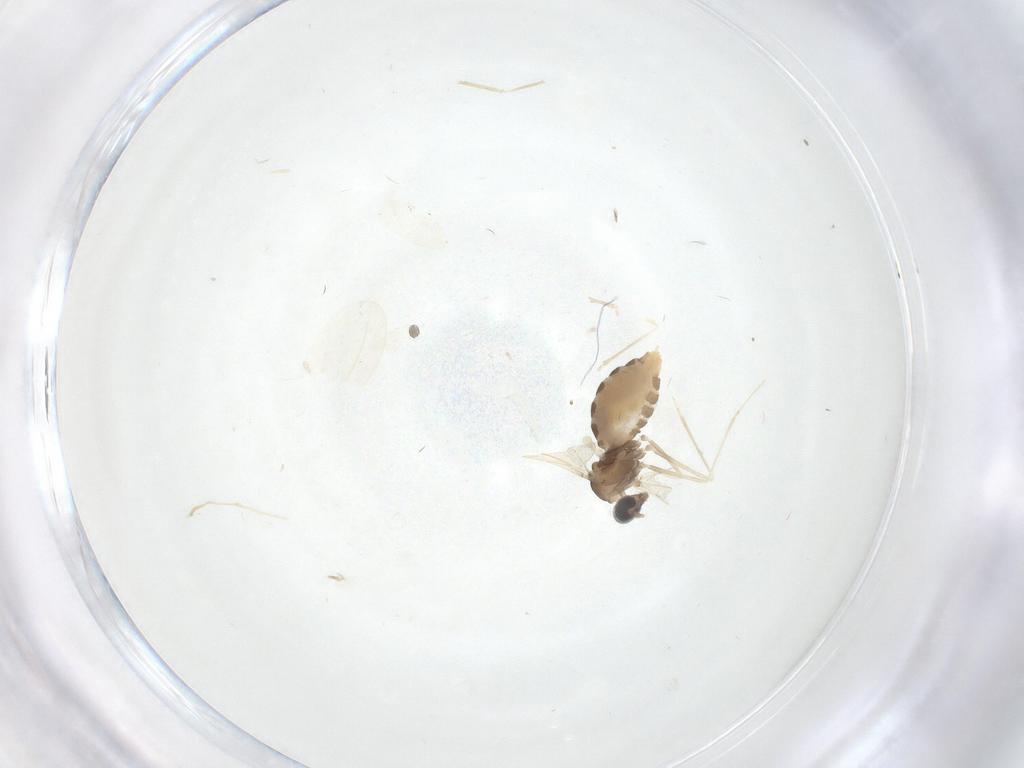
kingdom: Animalia
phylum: Arthropoda
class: Insecta
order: Diptera
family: Cecidomyiidae
